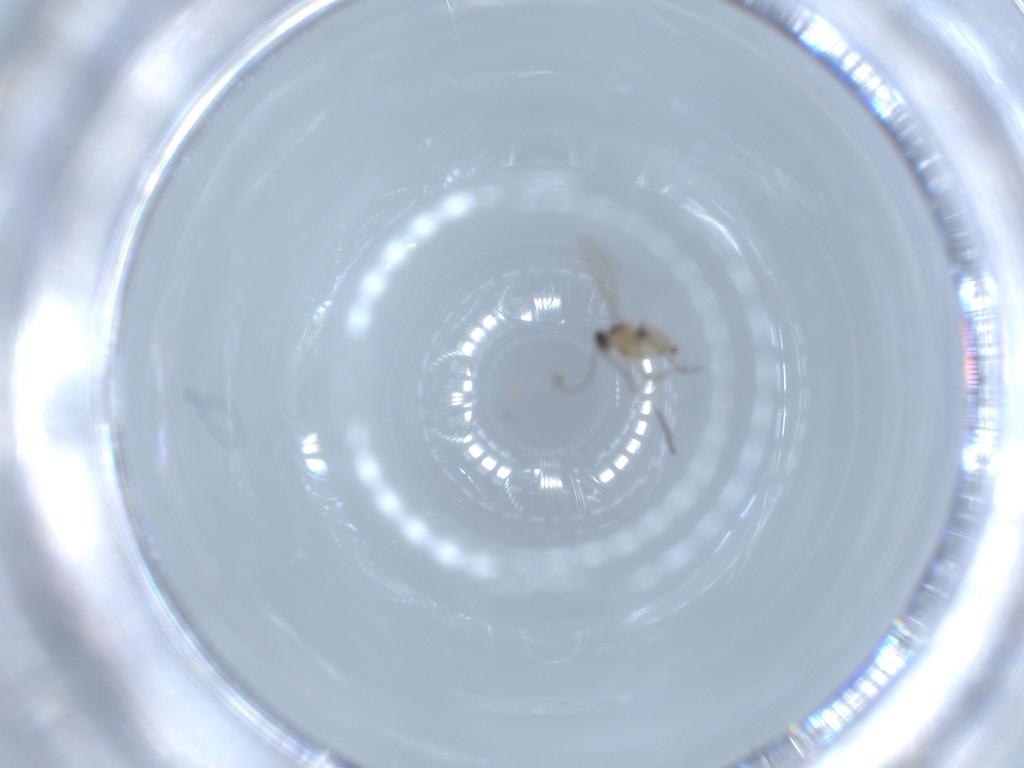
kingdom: Animalia
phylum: Arthropoda
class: Insecta
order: Diptera
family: Cecidomyiidae
